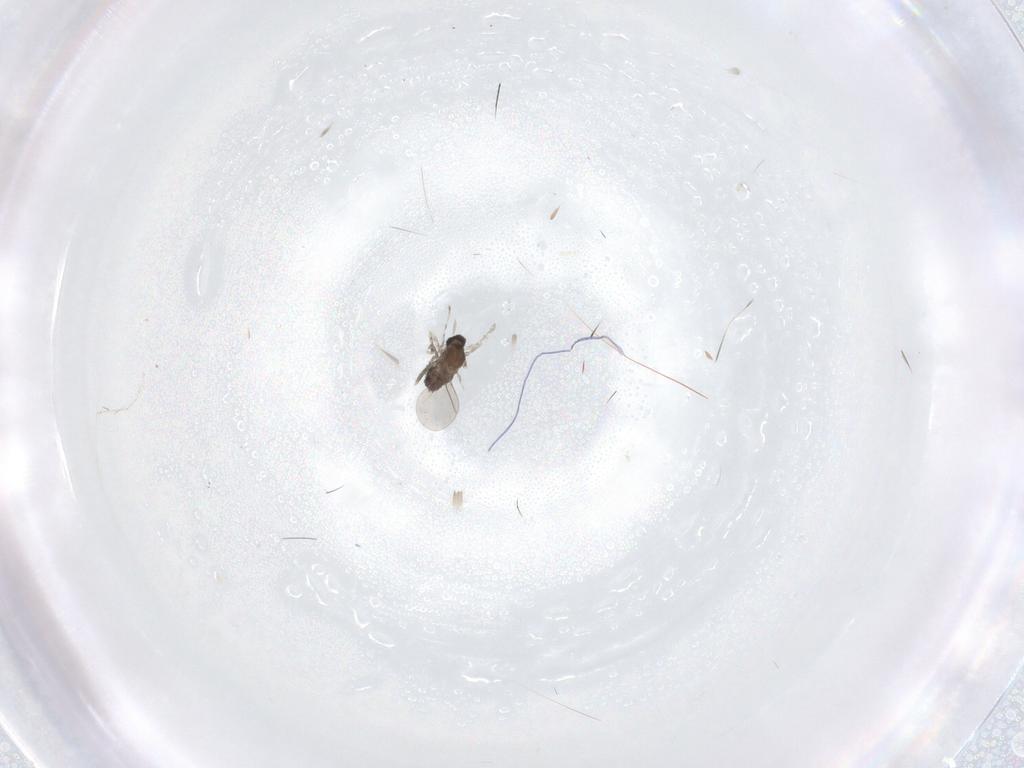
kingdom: Animalia
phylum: Arthropoda
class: Insecta
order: Diptera
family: Cecidomyiidae
